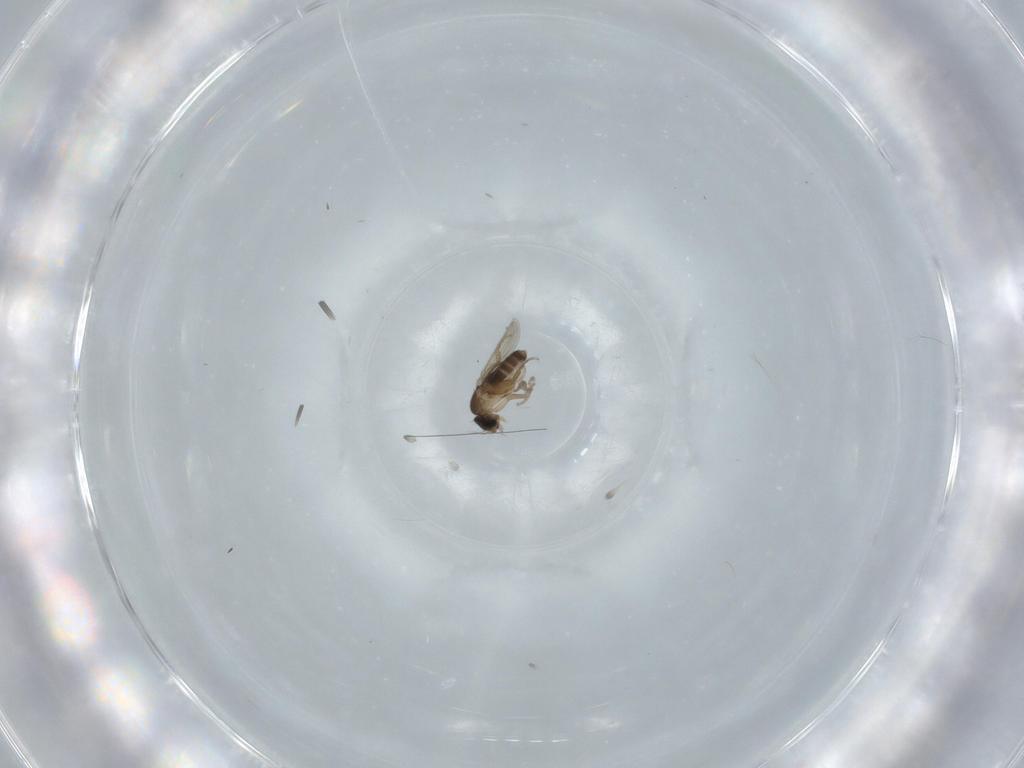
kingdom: Animalia
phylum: Arthropoda
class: Insecta
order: Diptera
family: Phoridae
